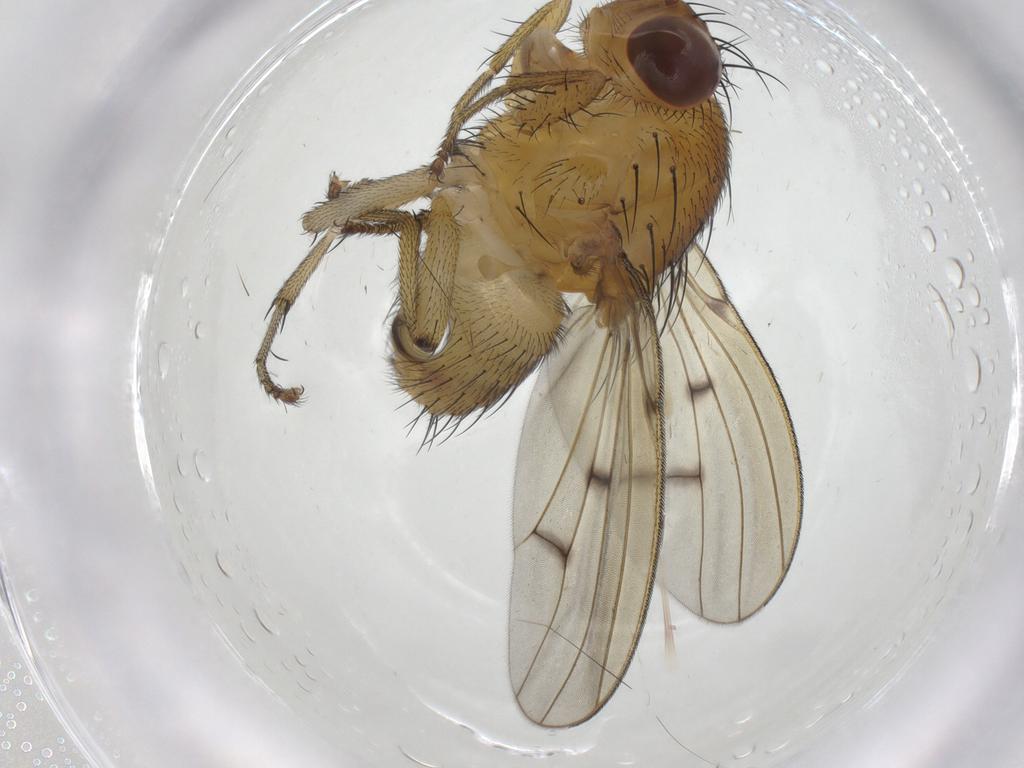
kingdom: Animalia
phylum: Arthropoda
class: Insecta
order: Diptera
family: Lauxaniidae
